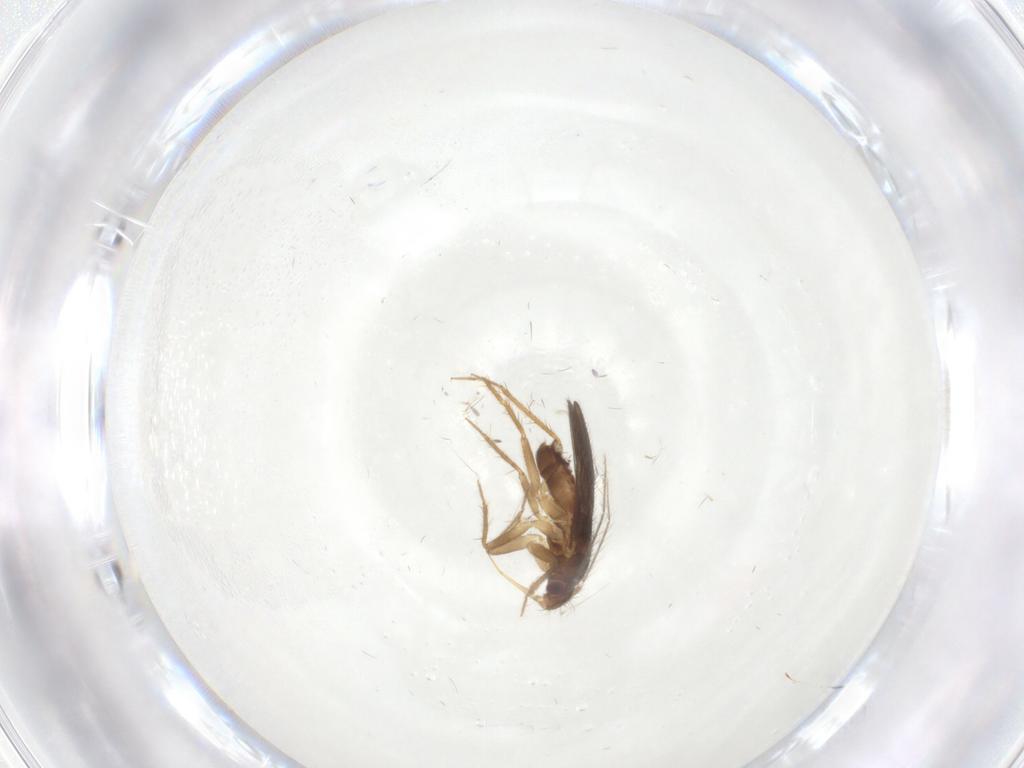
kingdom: Animalia
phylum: Arthropoda
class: Insecta
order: Hemiptera
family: Ceratocombidae
